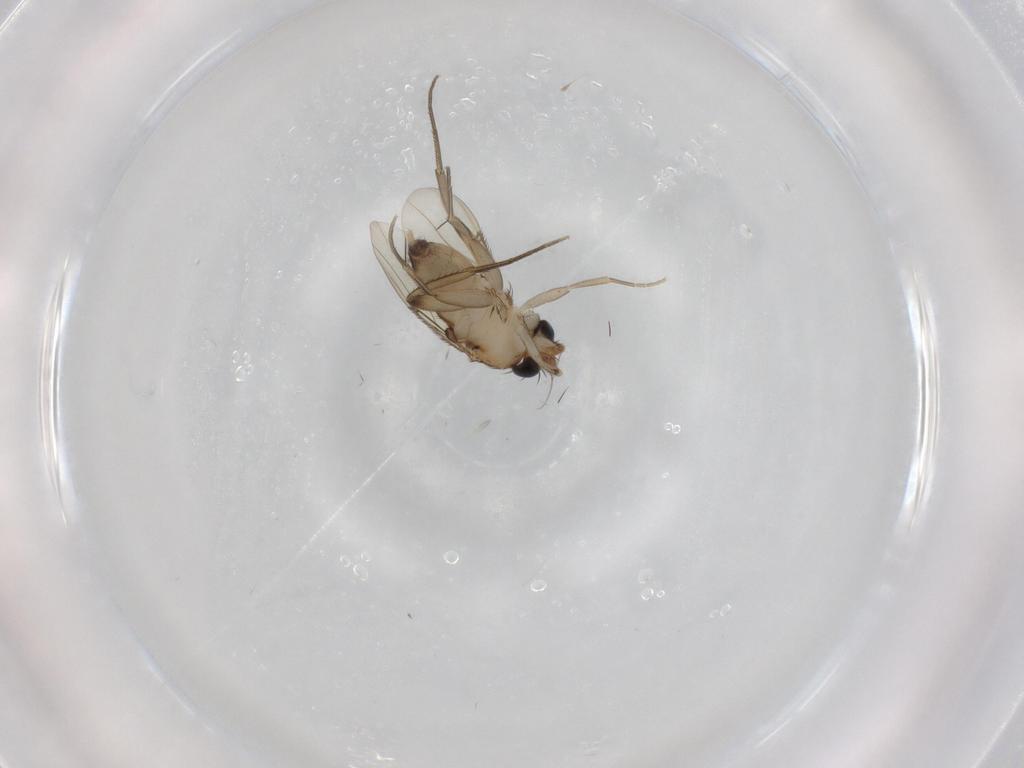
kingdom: Animalia
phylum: Arthropoda
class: Insecta
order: Diptera
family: Phoridae
